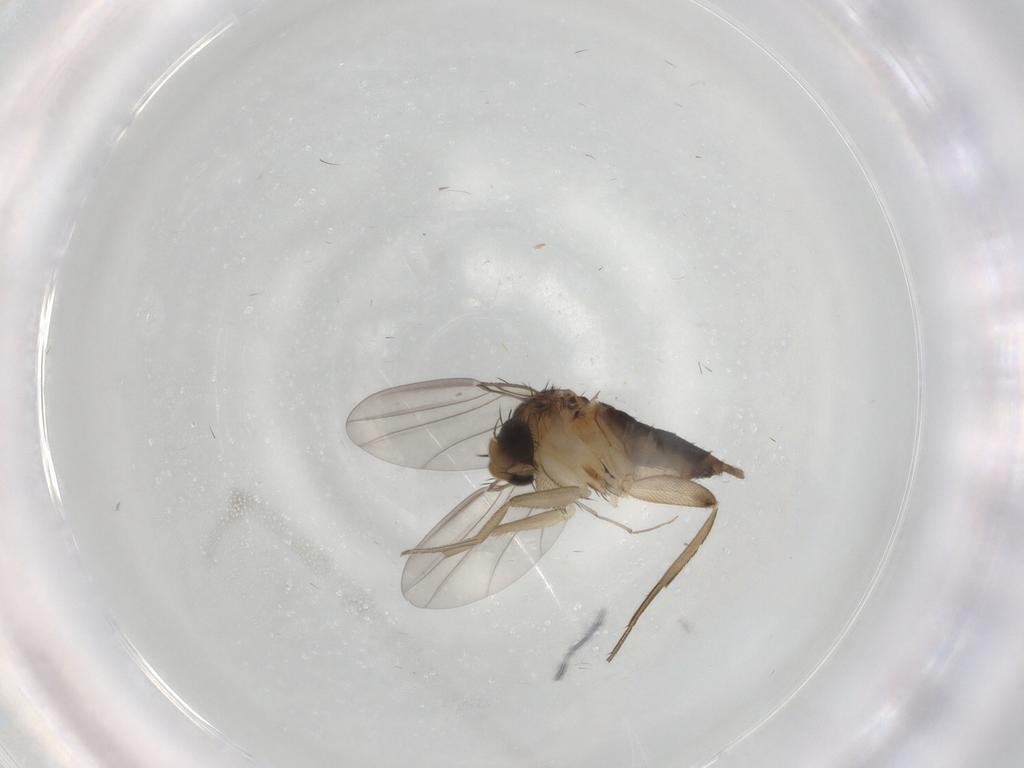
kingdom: Animalia
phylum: Arthropoda
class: Insecta
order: Diptera
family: Phoridae
